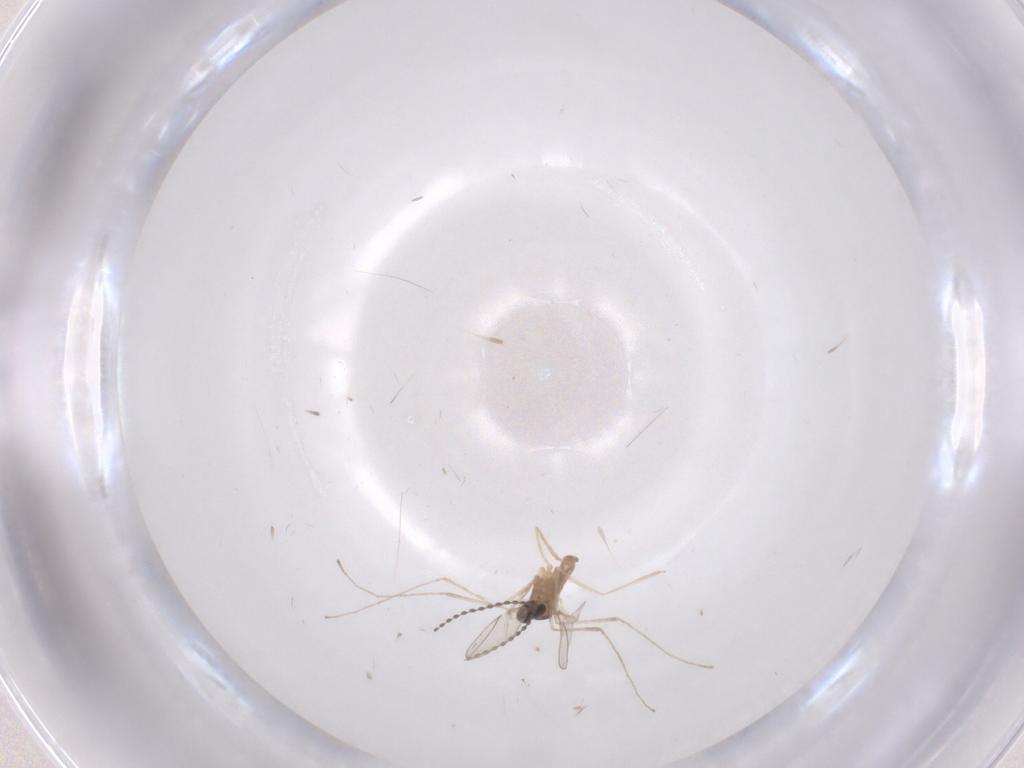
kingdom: Animalia
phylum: Arthropoda
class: Insecta
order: Diptera
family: Cecidomyiidae
